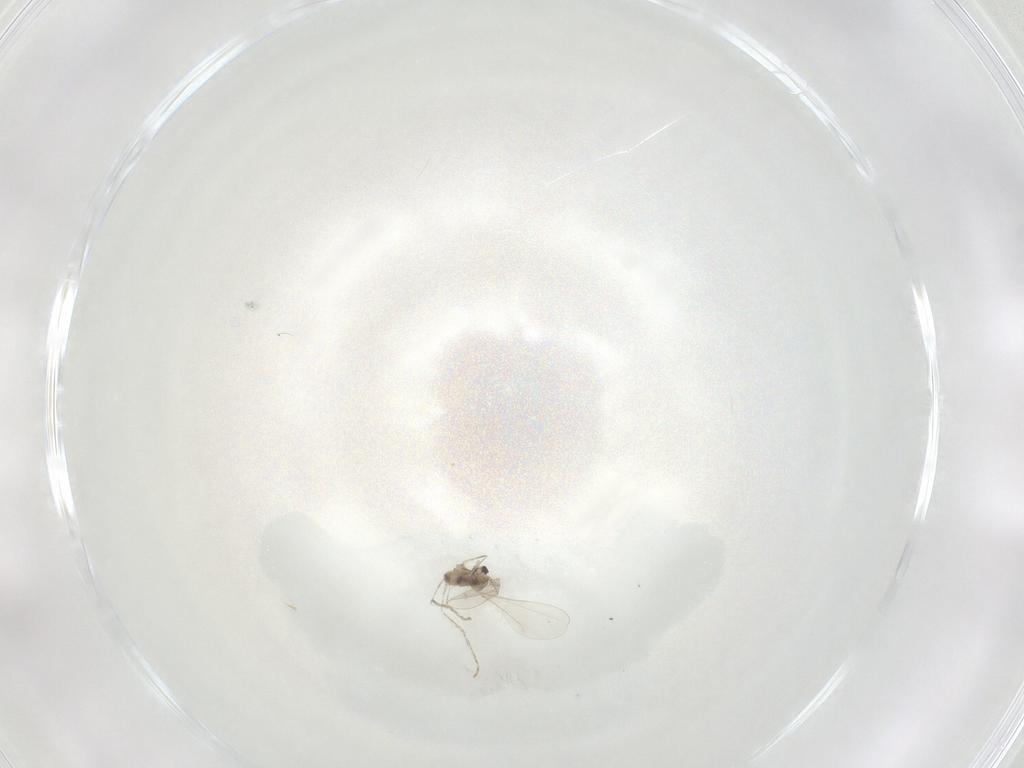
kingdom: Animalia
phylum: Arthropoda
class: Insecta
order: Diptera
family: Cecidomyiidae
